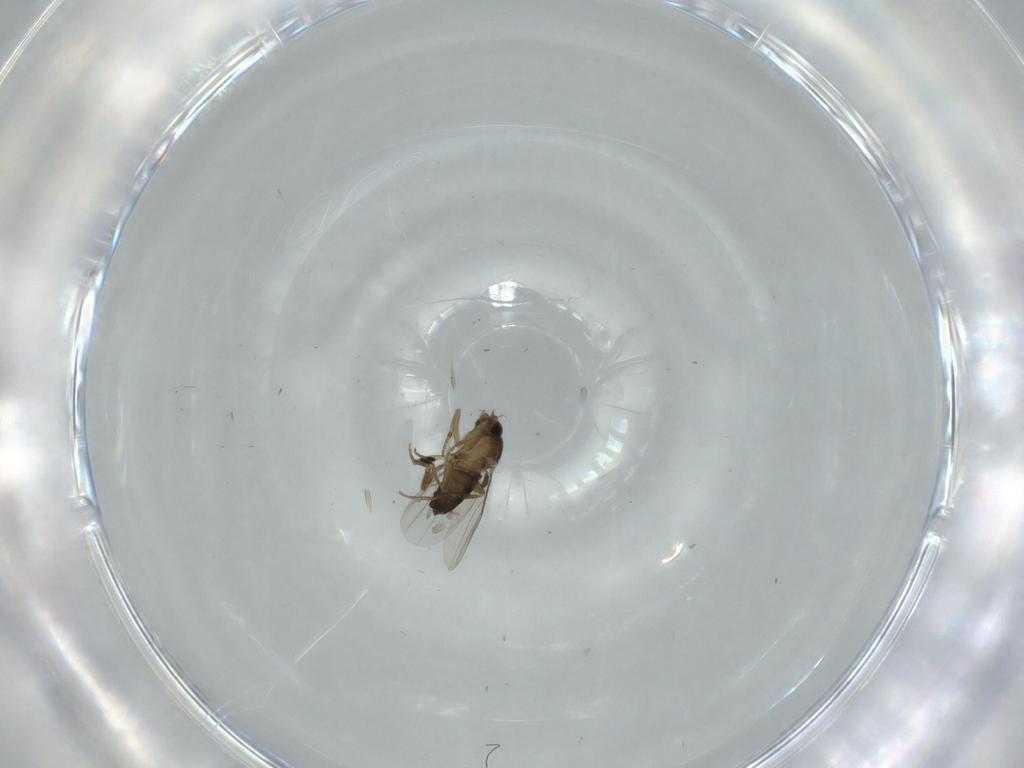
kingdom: Animalia
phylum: Arthropoda
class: Insecta
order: Diptera
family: Phoridae
